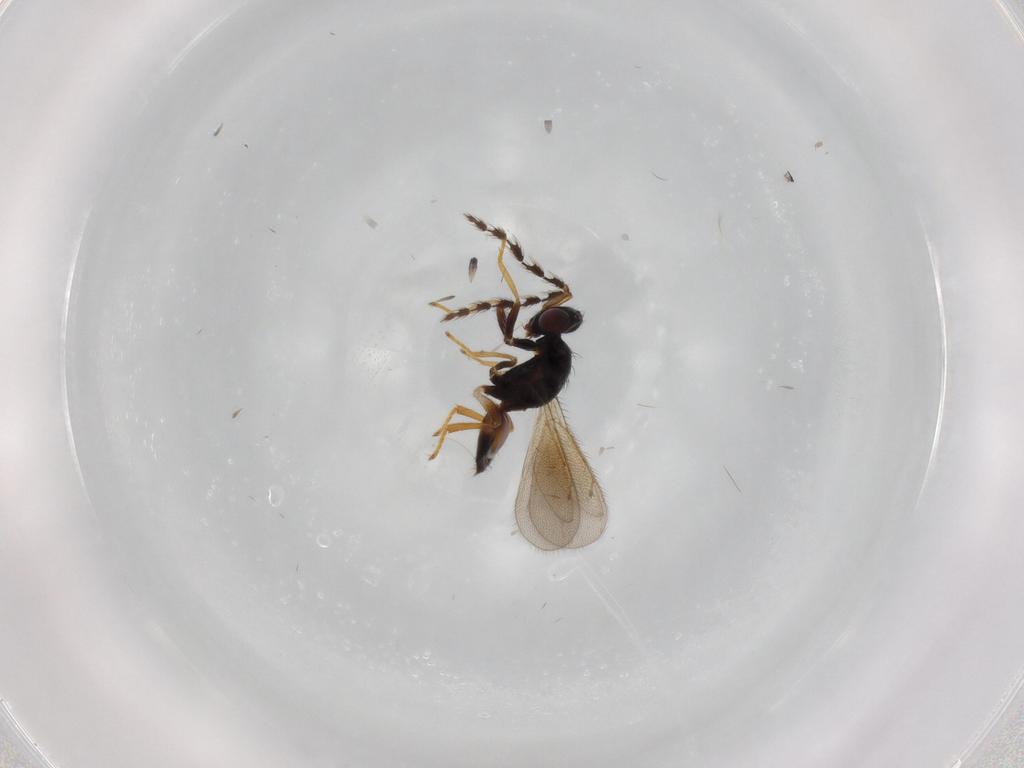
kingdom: Animalia
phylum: Arthropoda
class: Insecta
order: Hymenoptera
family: Eulophidae
